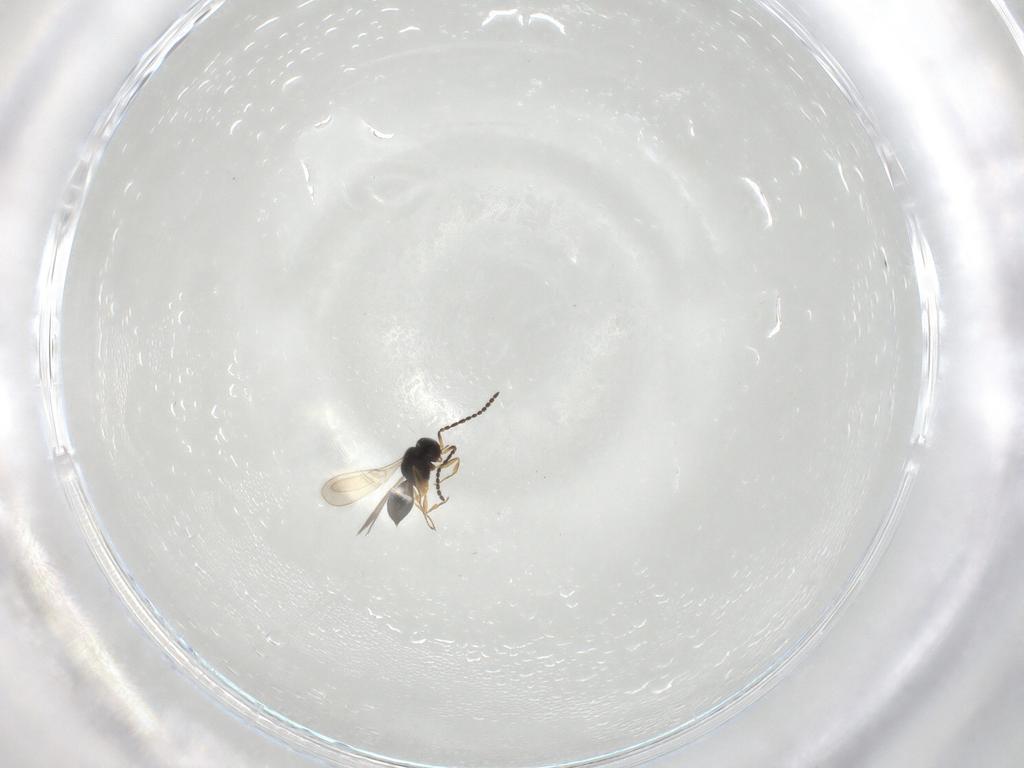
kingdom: Animalia
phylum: Arthropoda
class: Insecta
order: Hymenoptera
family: Scelionidae
